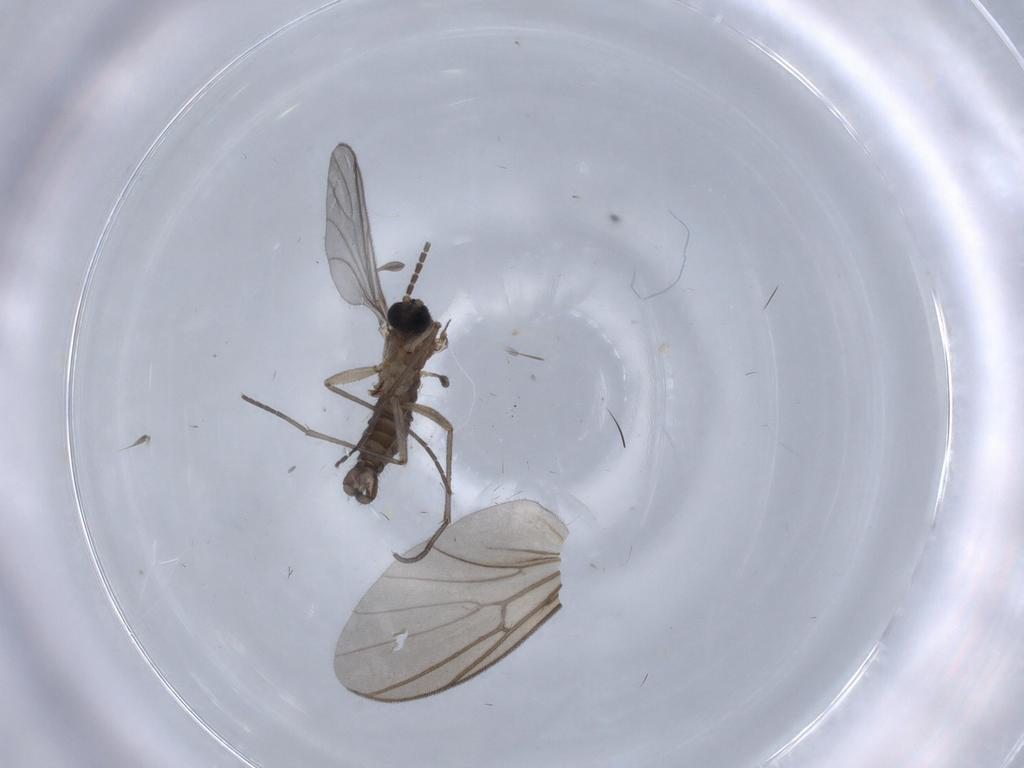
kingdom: Animalia
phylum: Arthropoda
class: Insecta
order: Diptera
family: Sciaridae
